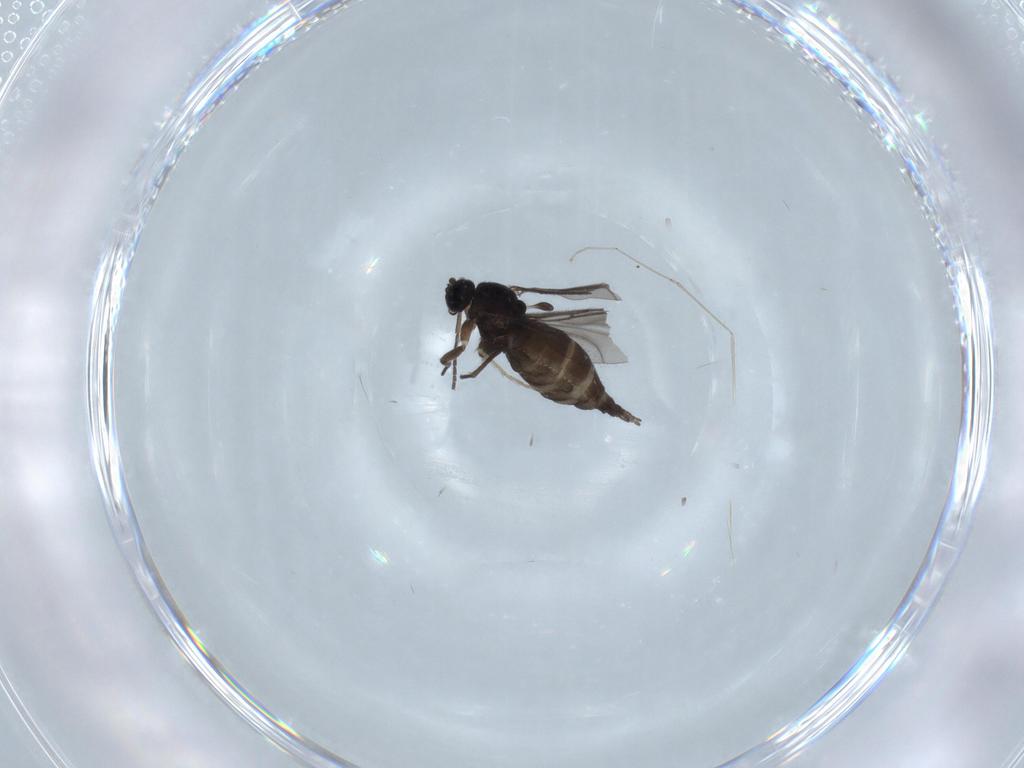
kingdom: Animalia
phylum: Arthropoda
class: Insecta
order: Diptera
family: Sciaridae
